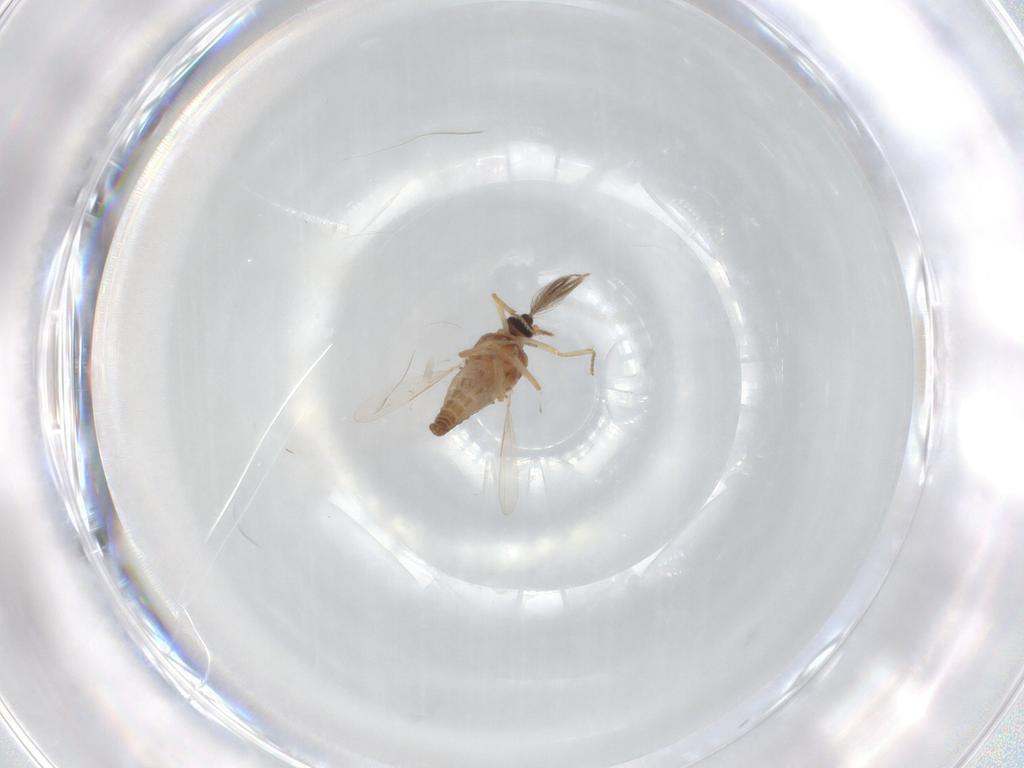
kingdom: Animalia
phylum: Arthropoda
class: Insecta
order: Diptera
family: Ceratopogonidae
